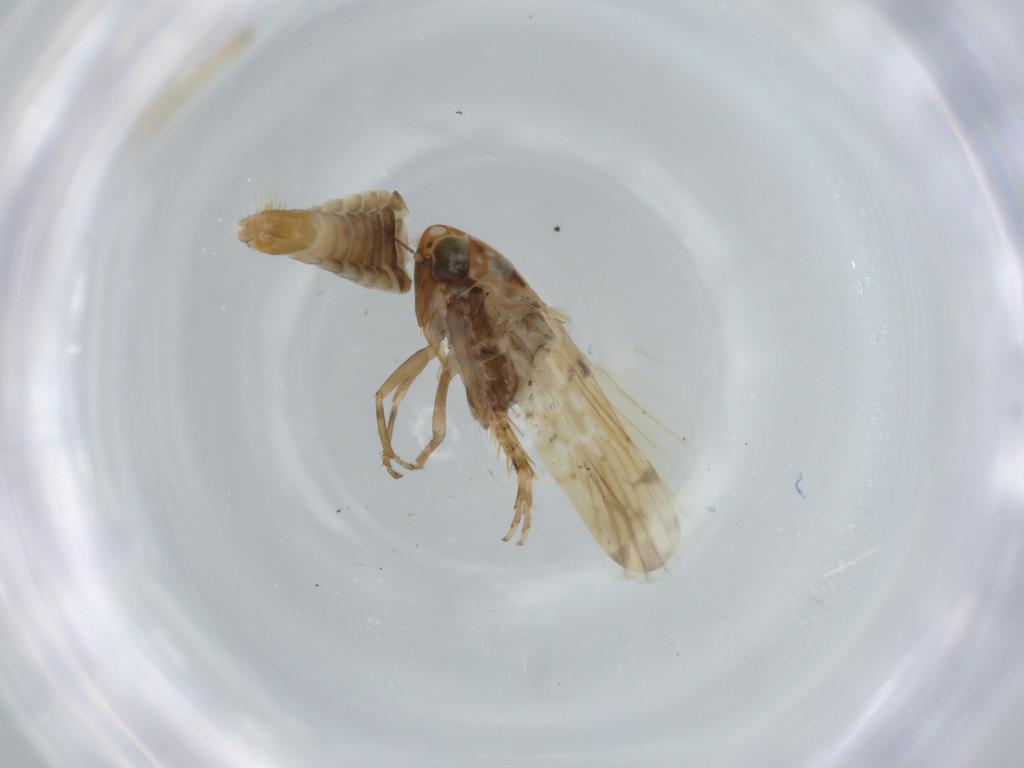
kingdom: Animalia
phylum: Arthropoda
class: Insecta
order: Hemiptera
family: Cicadellidae
